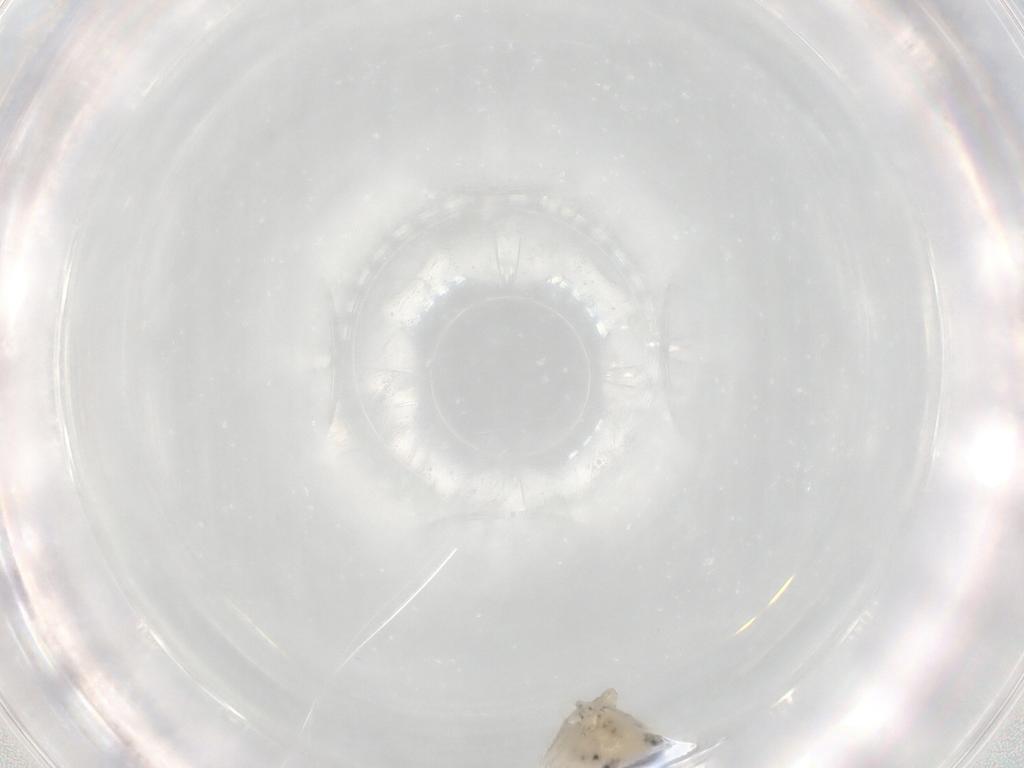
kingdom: Animalia
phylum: Arthropoda
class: Insecta
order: Psocodea
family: Trichopsocidae
